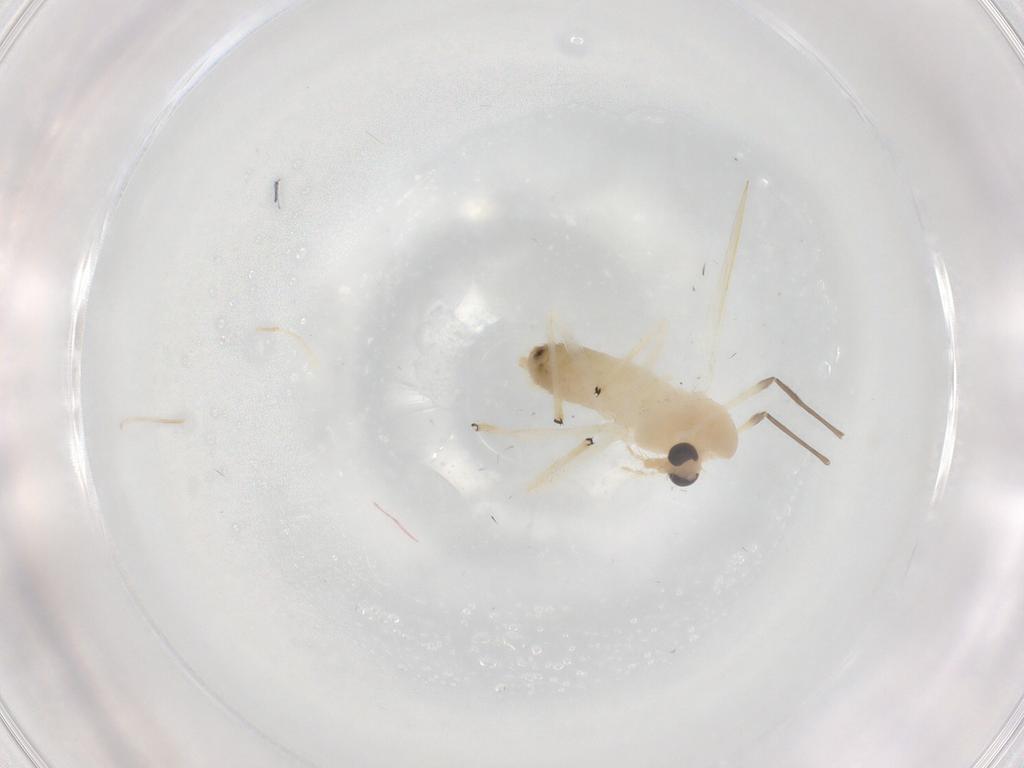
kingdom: Animalia
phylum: Arthropoda
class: Insecta
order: Diptera
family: Chironomidae
